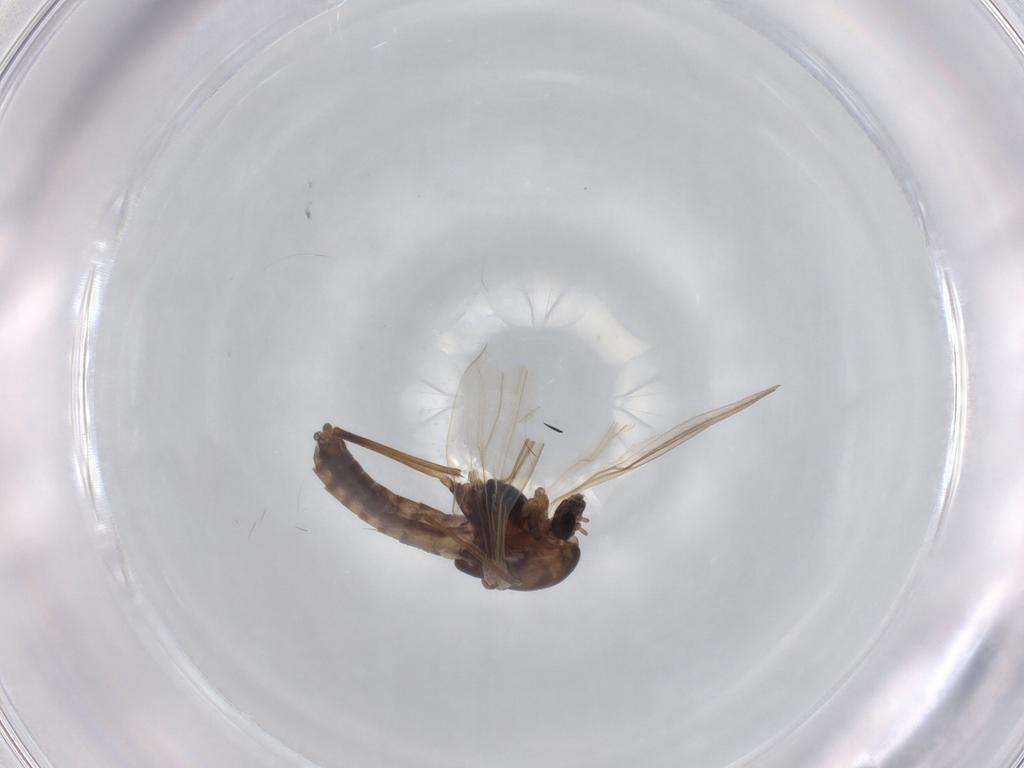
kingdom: Animalia
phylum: Arthropoda
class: Insecta
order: Diptera
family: Chironomidae
